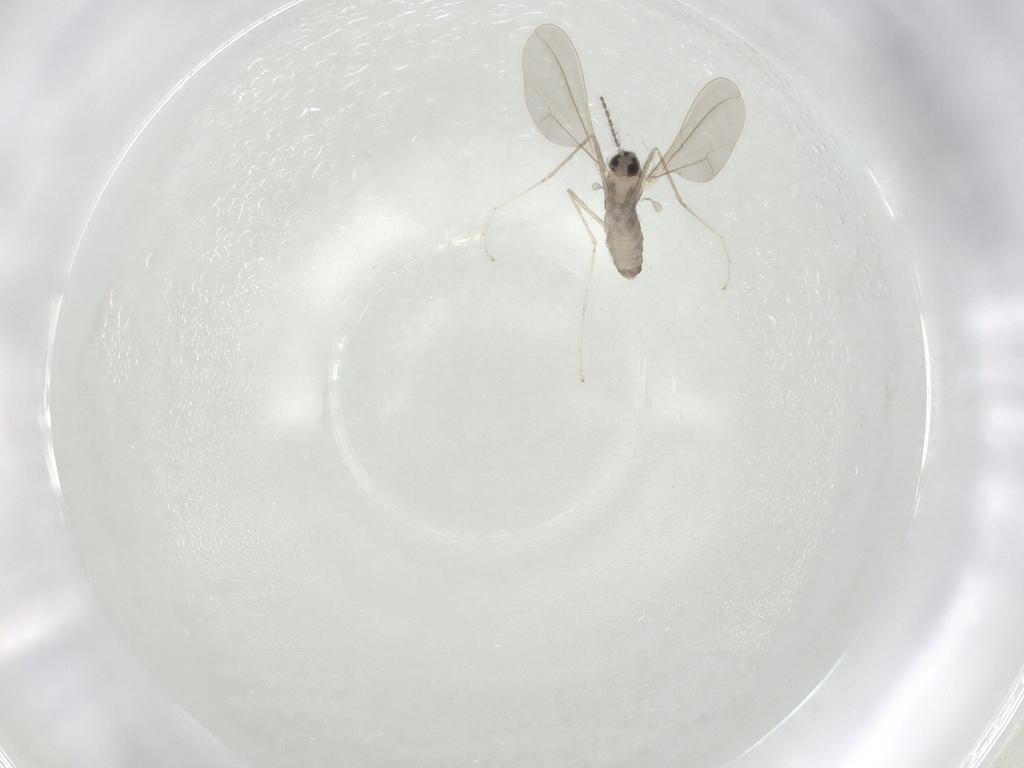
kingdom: Animalia
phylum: Arthropoda
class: Insecta
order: Diptera
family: Cecidomyiidae
